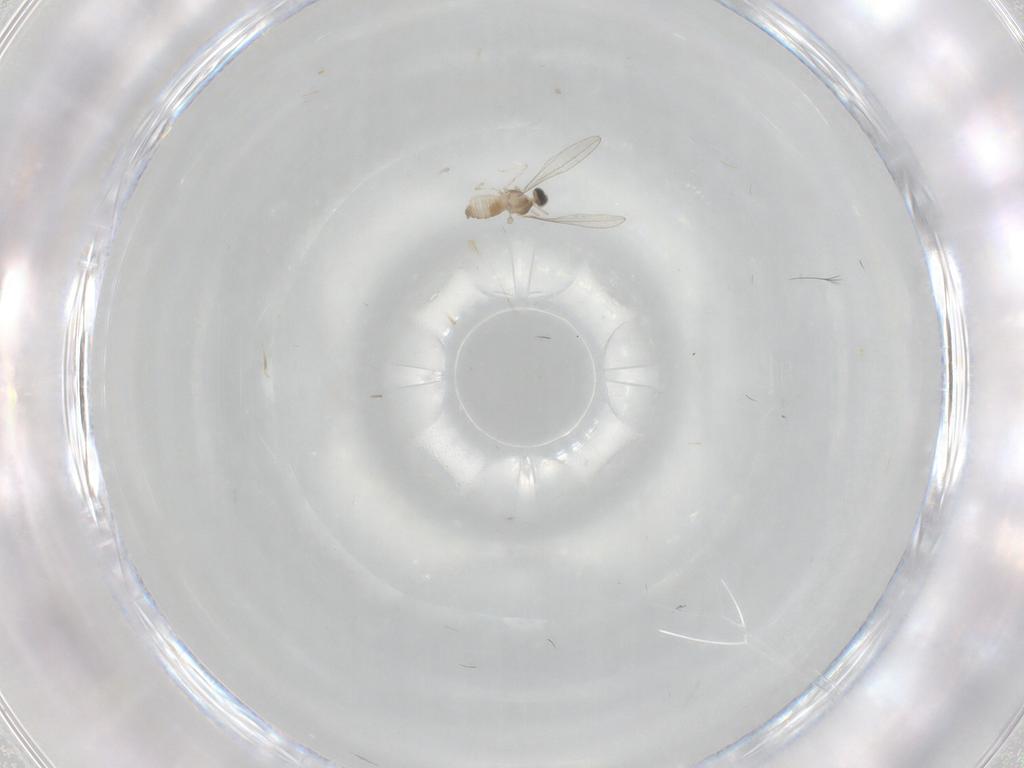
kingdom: Animalia
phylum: Arthropoda
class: Insecta
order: Diptera
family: Cecidomyiidae
